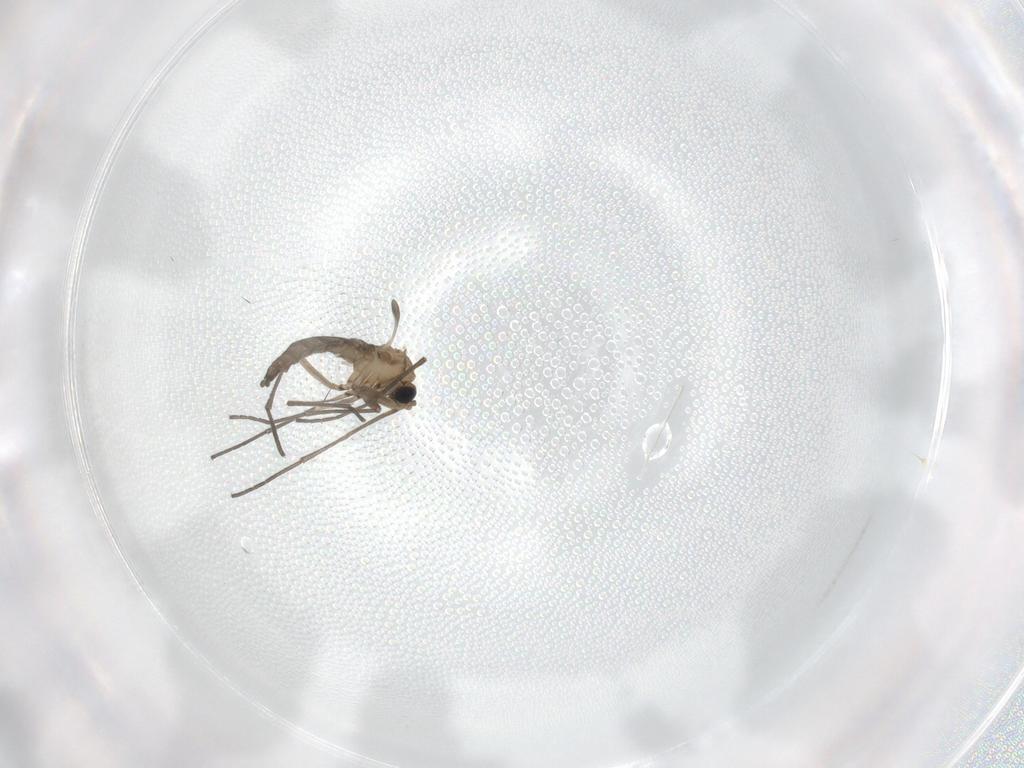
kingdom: Animalia
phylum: Arthropoda
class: Insecta
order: Diptera
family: Sciaridae
